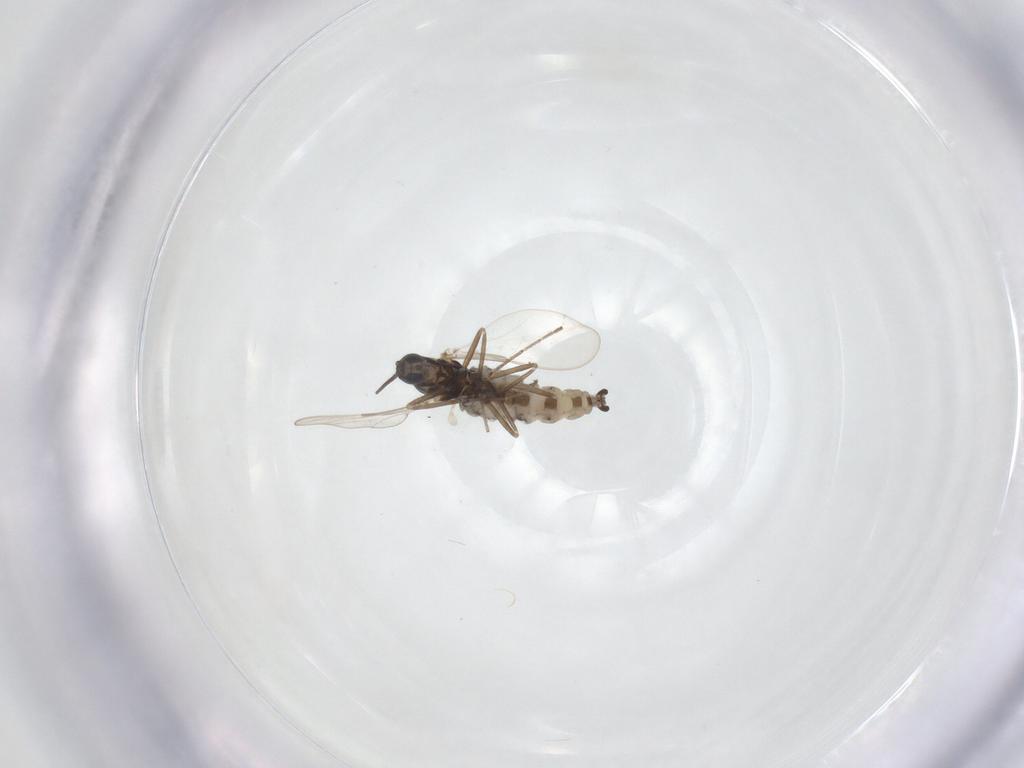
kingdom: Animalia
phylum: Arthropoda
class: Insecta
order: Diptera
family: Cecidomyiidae
